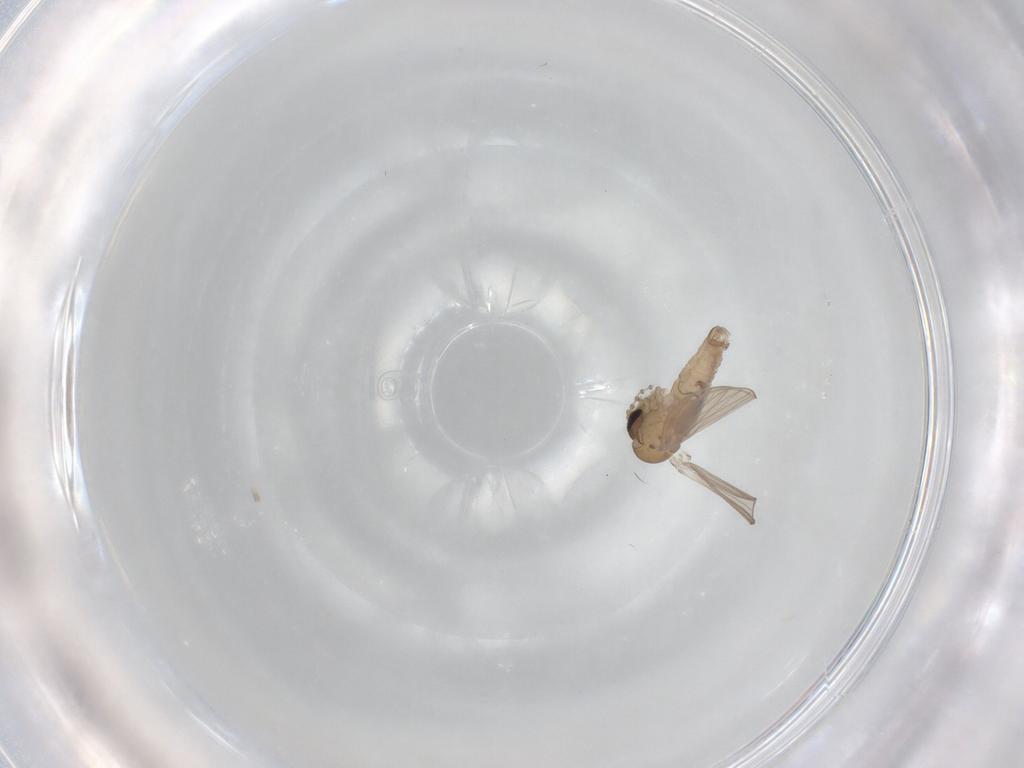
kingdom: Animalia
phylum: Arthropoda
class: Insecta
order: Diptera
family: Psychodidae
